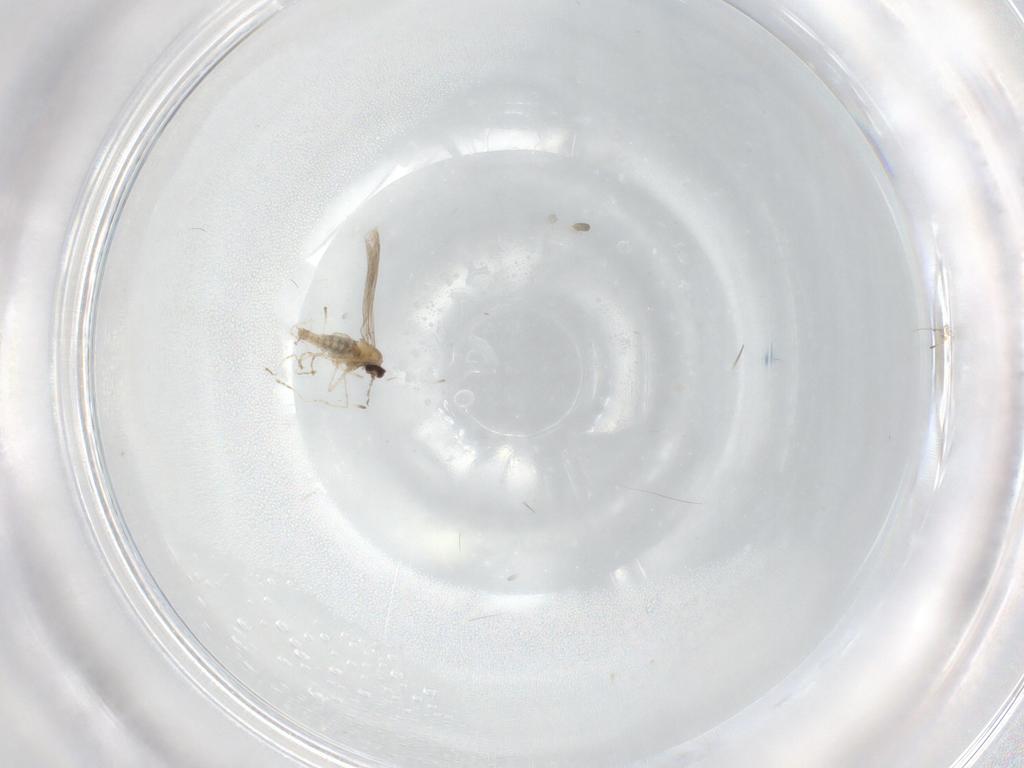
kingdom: Animalia
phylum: Arthropoda
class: Insecta
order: Diptera
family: Cecidomyiidae
